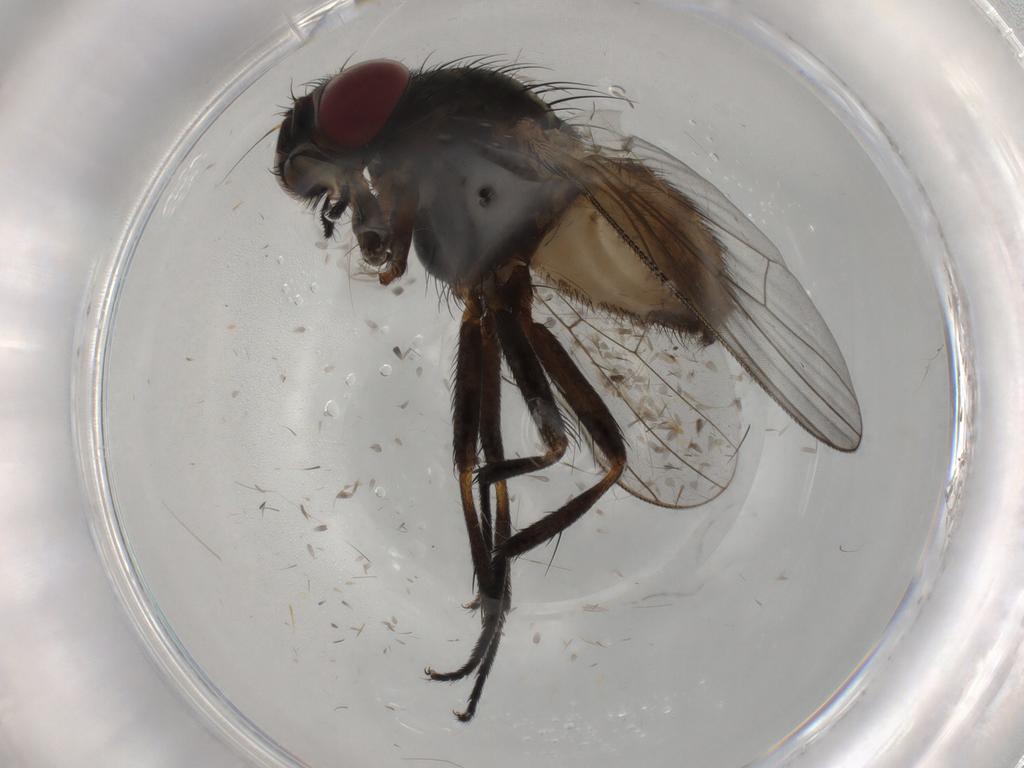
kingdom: Animalia
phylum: Arthropoda
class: Insecta
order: Diptera
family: Fannia
